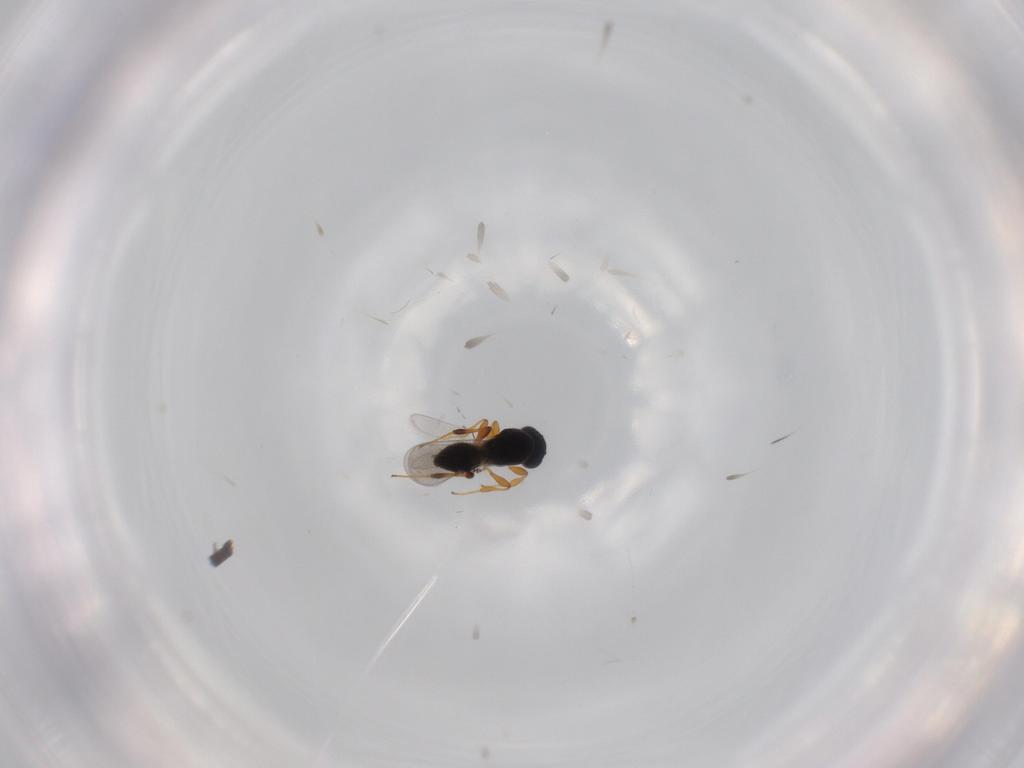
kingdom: Animalia
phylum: Arthropoda
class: Insecta
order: Hymenoptera
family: Platygastridae
